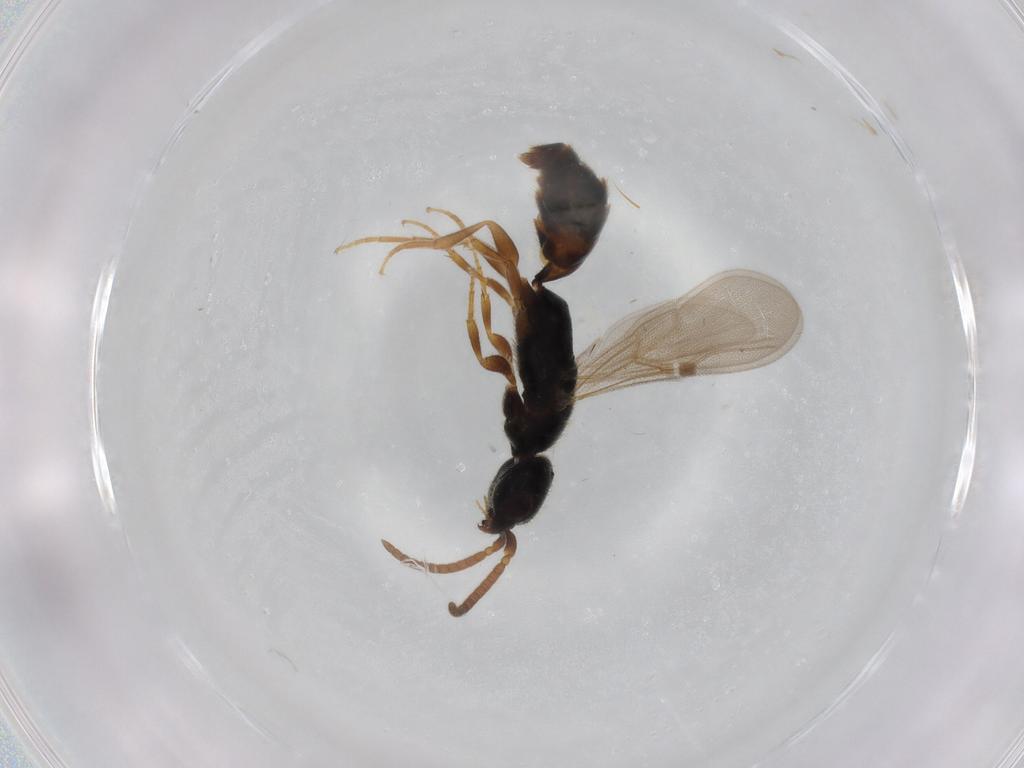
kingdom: Animalia
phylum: Arthropoda
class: Insecta
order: Hymenoptera
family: Bethylidae
